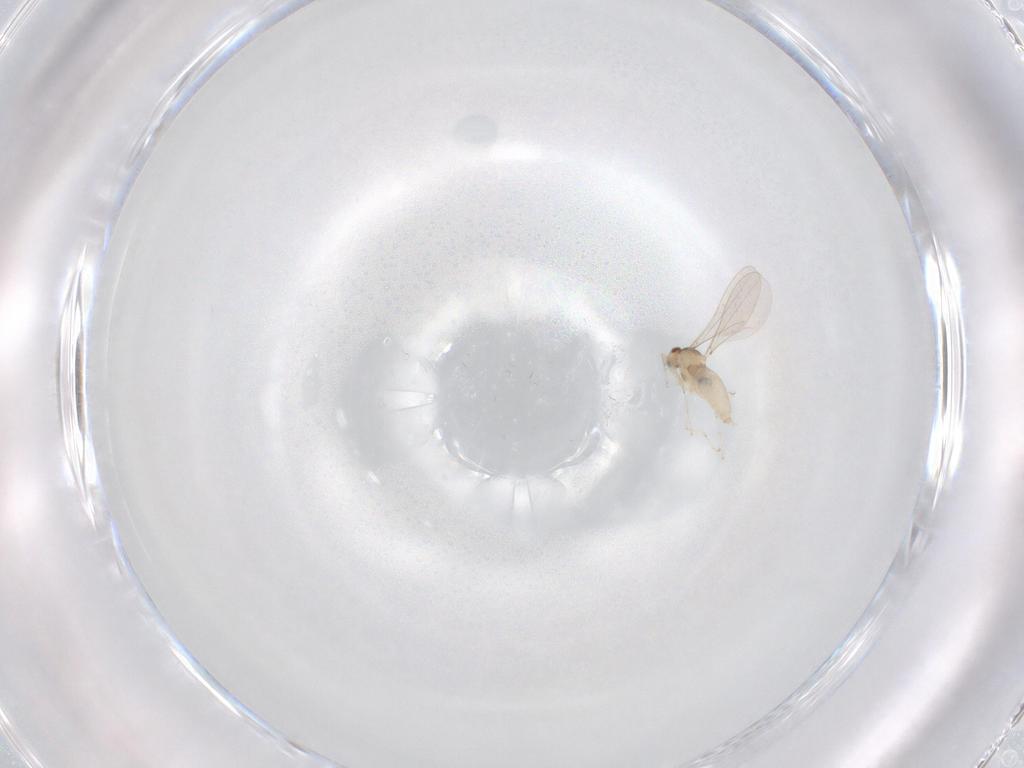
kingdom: Animalia
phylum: Arthropoda
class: Insecta
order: Diptera
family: Cecidomyiidae
